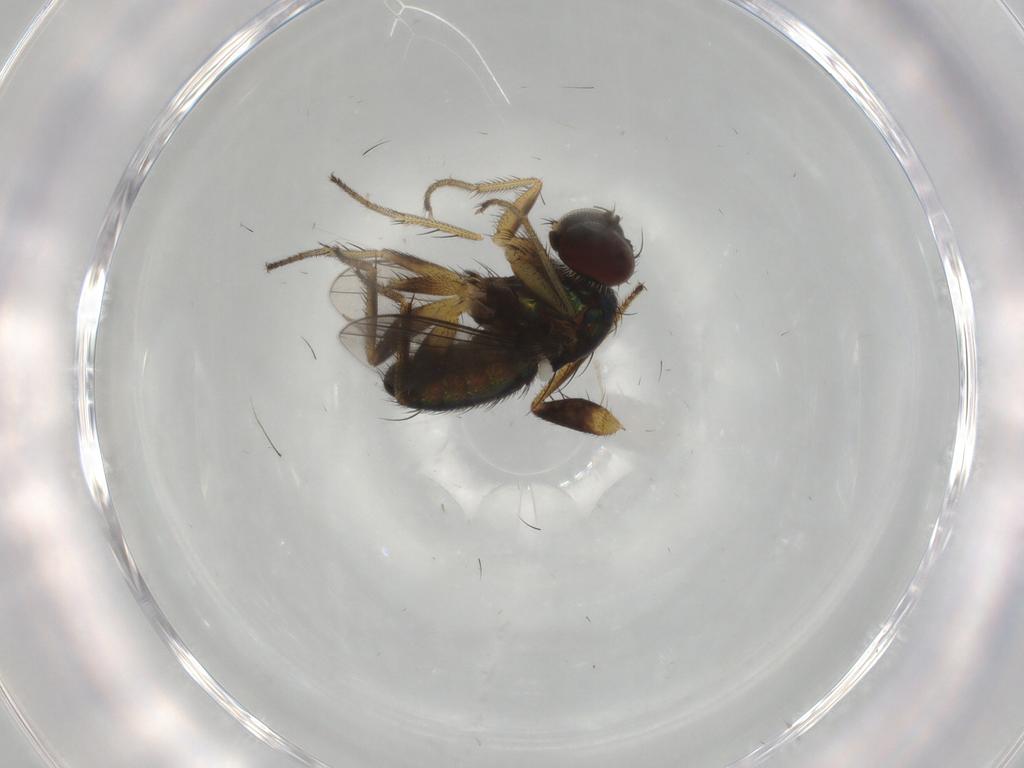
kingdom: Animalia
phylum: Arthropoda
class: Insecta
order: Diptera
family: Dolichopodidae
